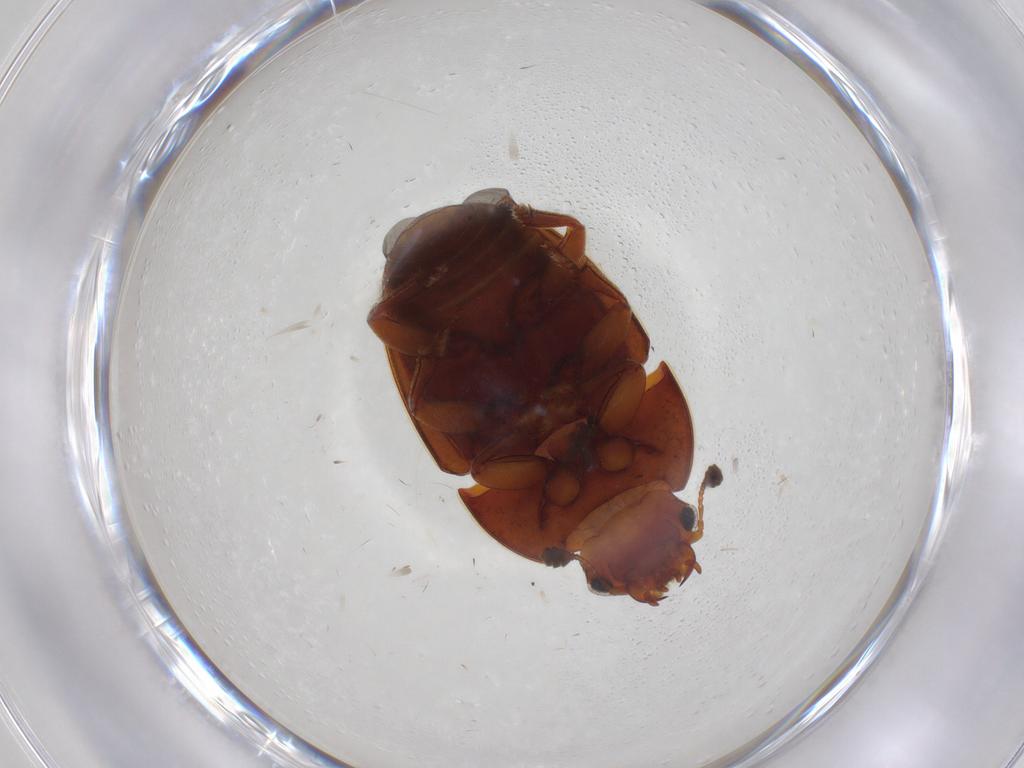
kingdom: Animalia
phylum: Arthropoda
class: Insecta
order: Coleoptera
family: Nitidulidae
